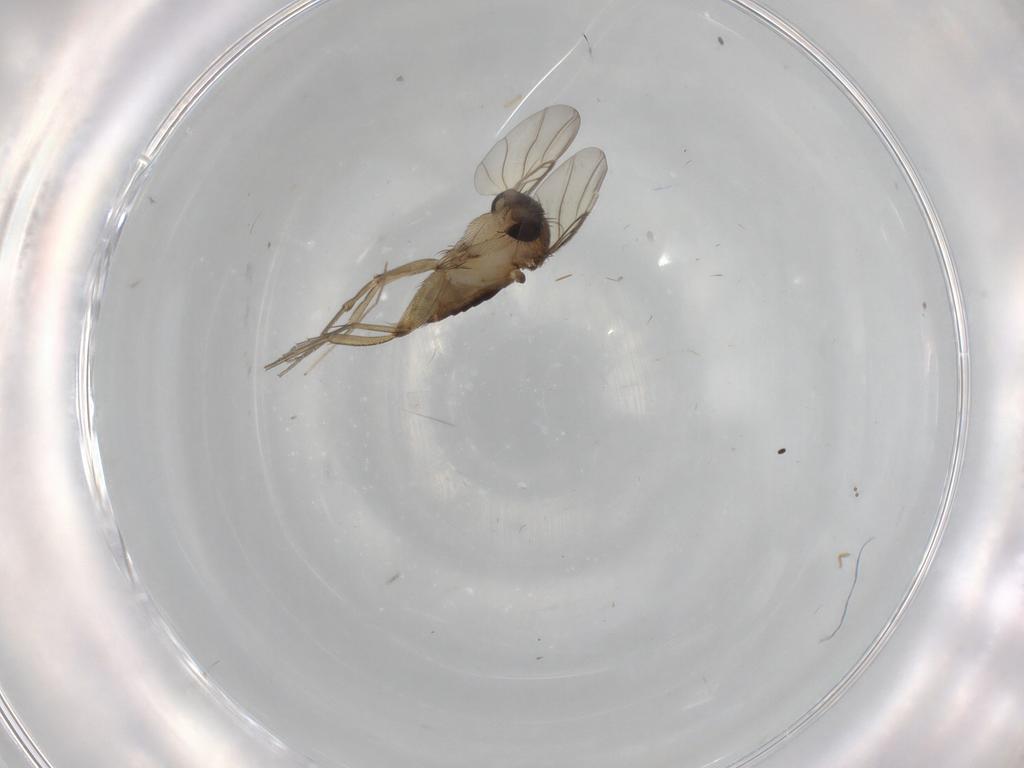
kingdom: Animalia
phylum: Arthropoda
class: Insecta
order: Diptera
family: Phoridae
